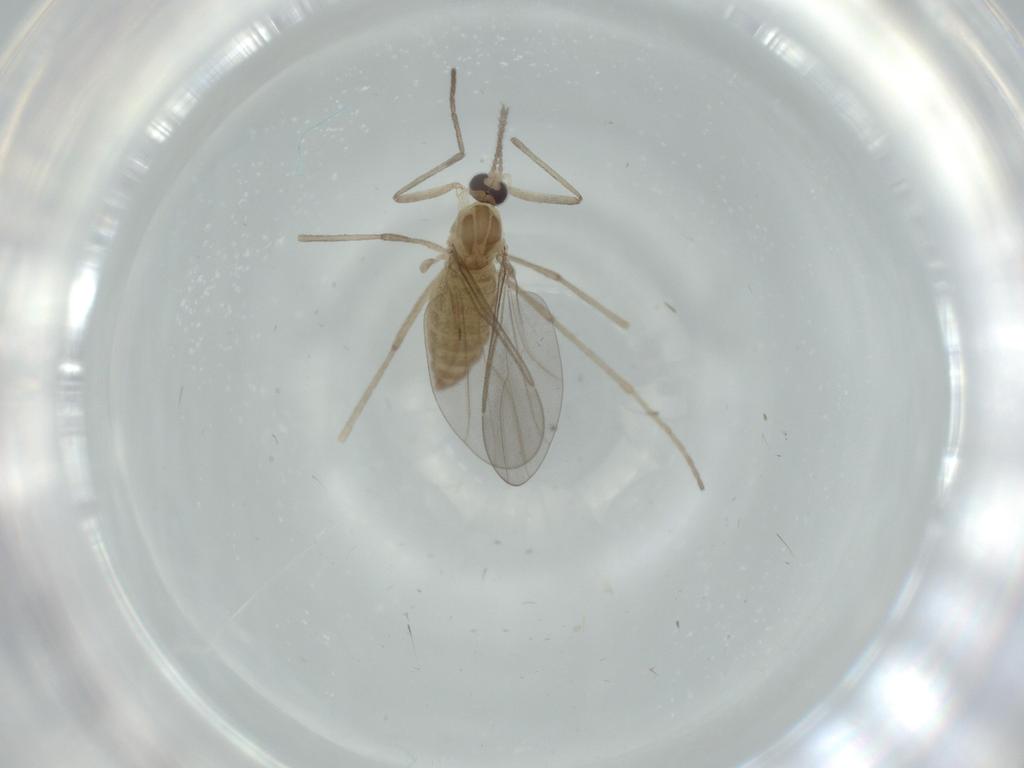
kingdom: Animalia
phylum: Arthropoda
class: Insecta
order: Diptera
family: Cecidomyiidae
